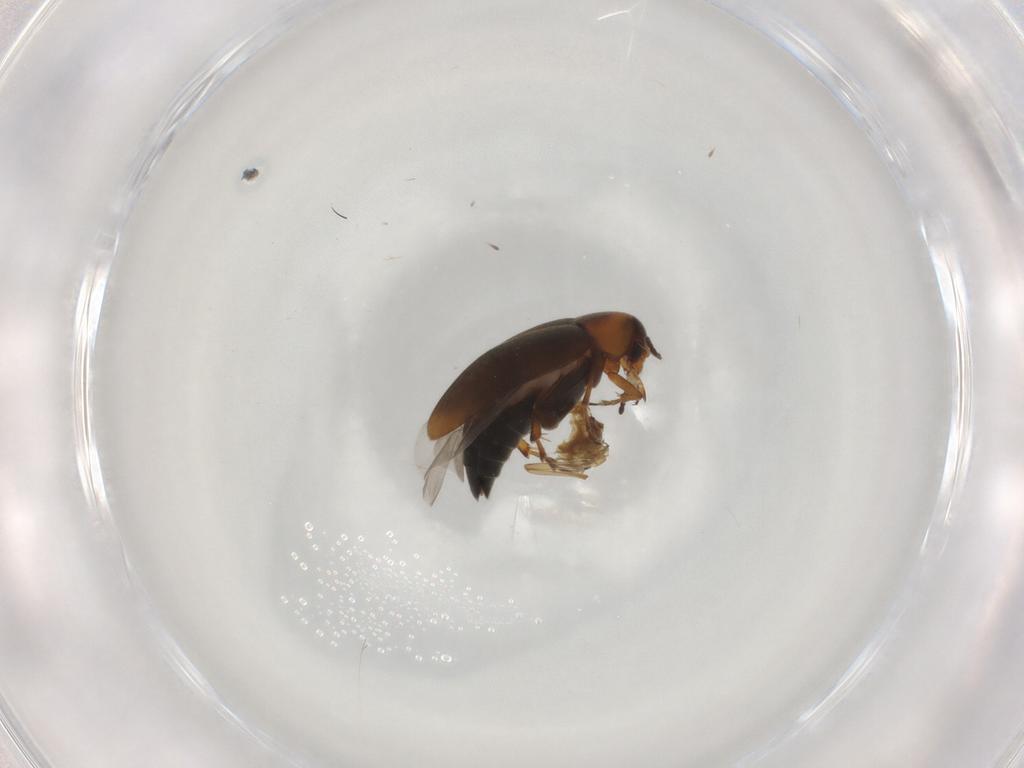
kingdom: Animalia
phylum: Arthropoda
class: Insecta
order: Coleoptera
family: Scraptiidae
